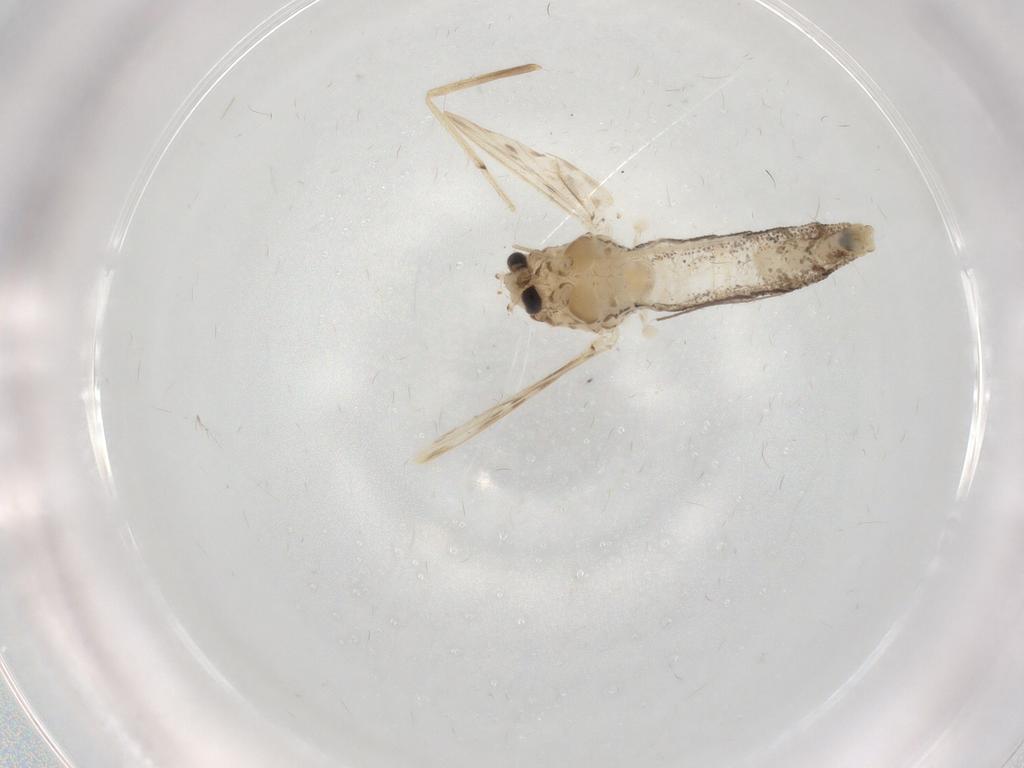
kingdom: Animalia
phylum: Arthropoda
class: Insecta
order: Diptera
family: Chaoboridae
